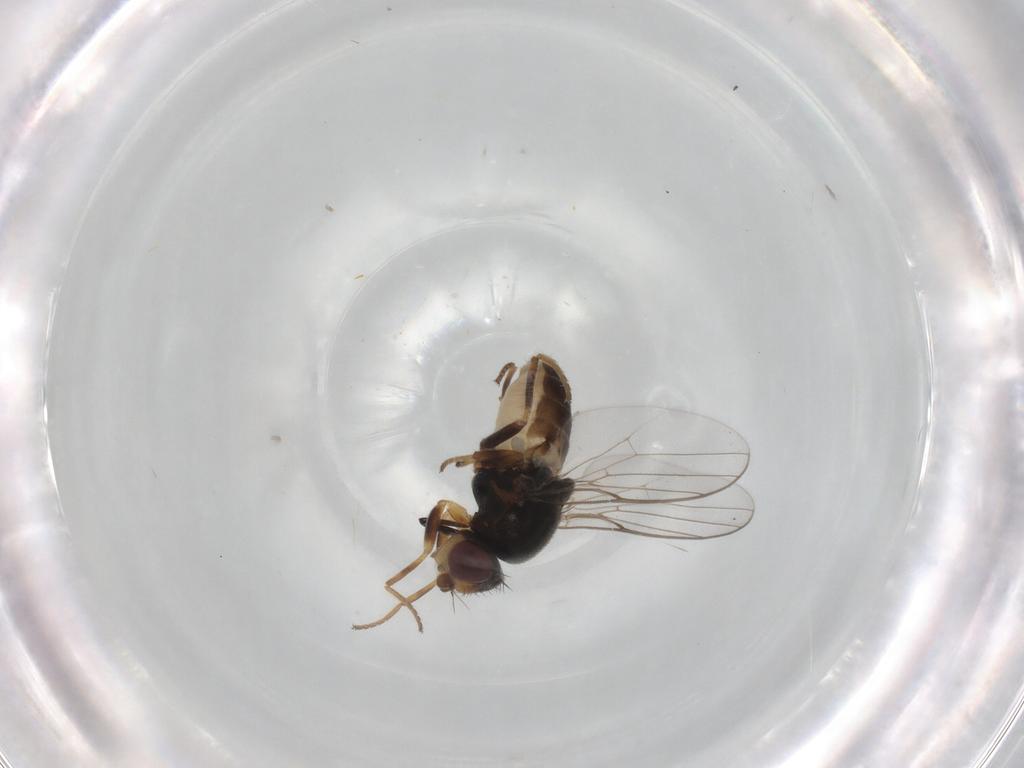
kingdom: Animalia
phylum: Arthropoda
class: Insecta
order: Diptera
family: Chloropidae
